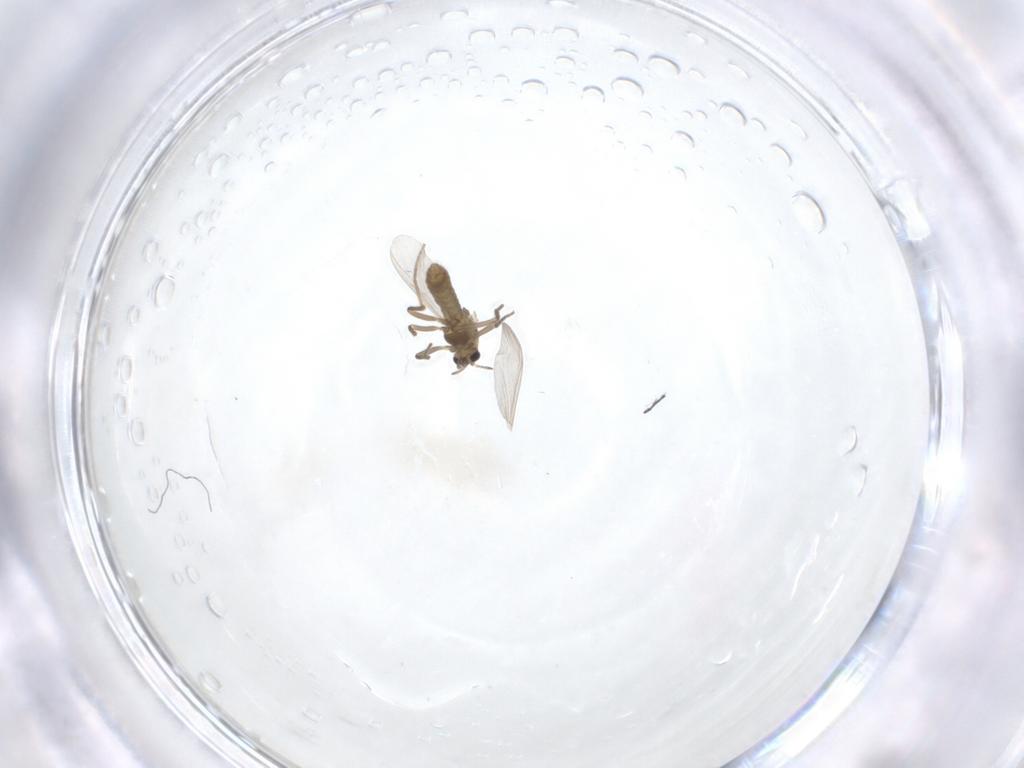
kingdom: Animalia
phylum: Arthropoda
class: Insecta
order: Diptera
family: Chironomidae
